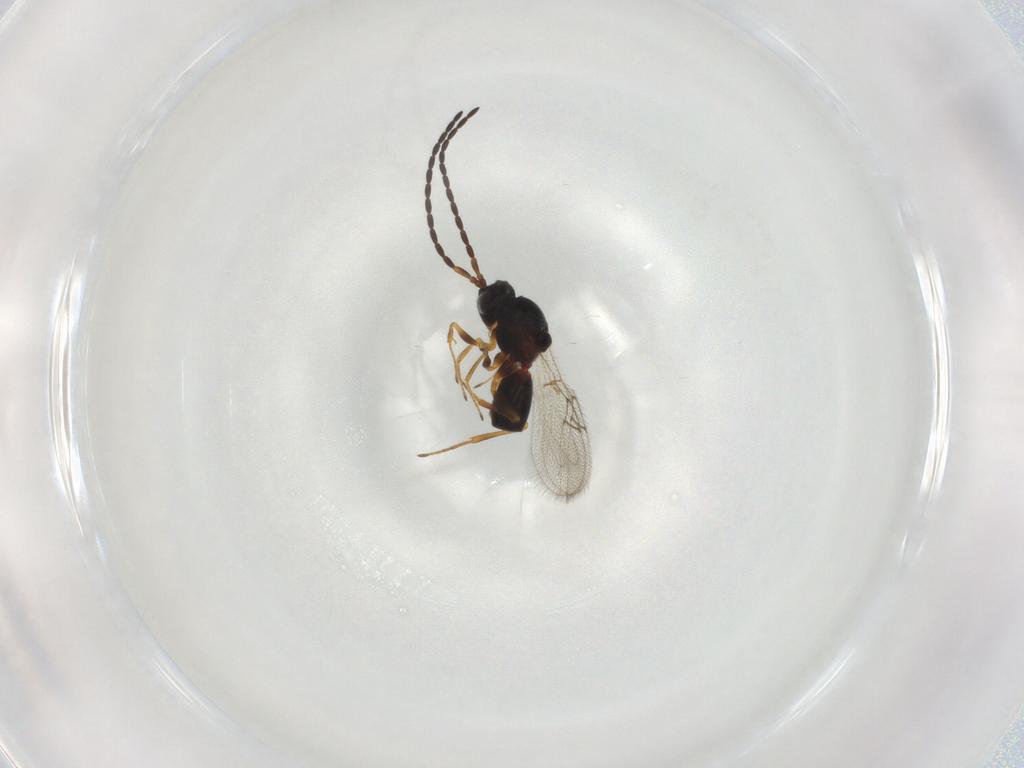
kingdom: Animalia
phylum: Arthropoda
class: Insecta
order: Hymenoptera
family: Figitidae
